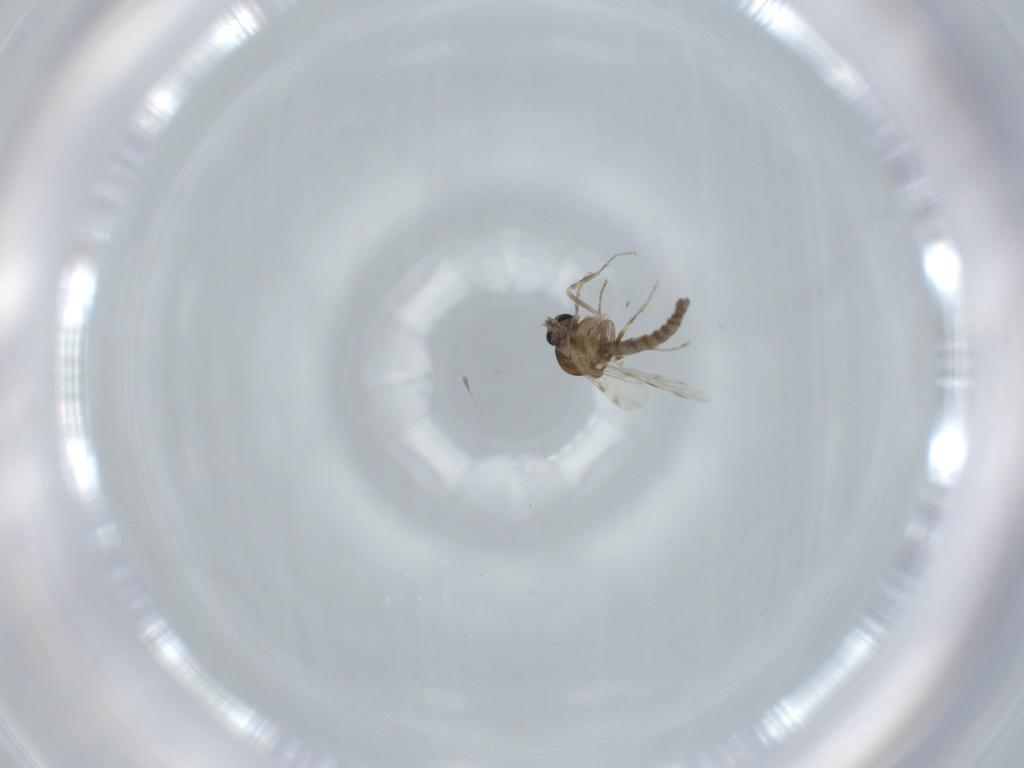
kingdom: Animalia
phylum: Arthropoda
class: Insecta
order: Diptera
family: Ceratopogonidae
